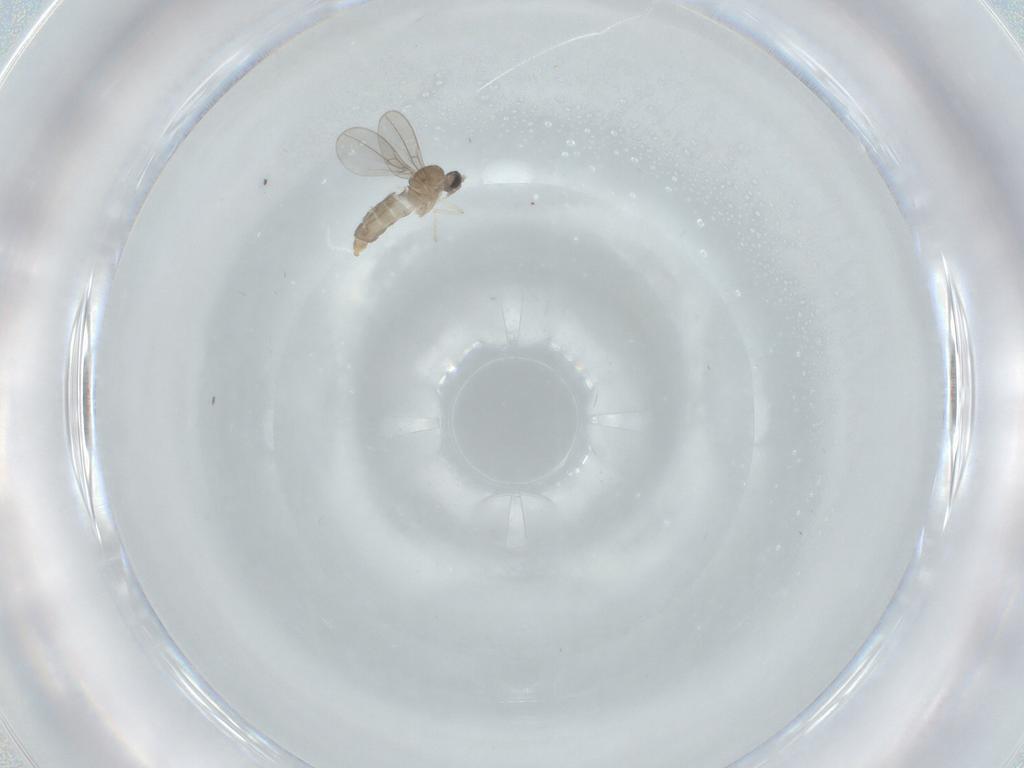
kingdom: Animalia
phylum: Arthropoda
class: Insecta
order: Diptera
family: Cecidomyiidae
